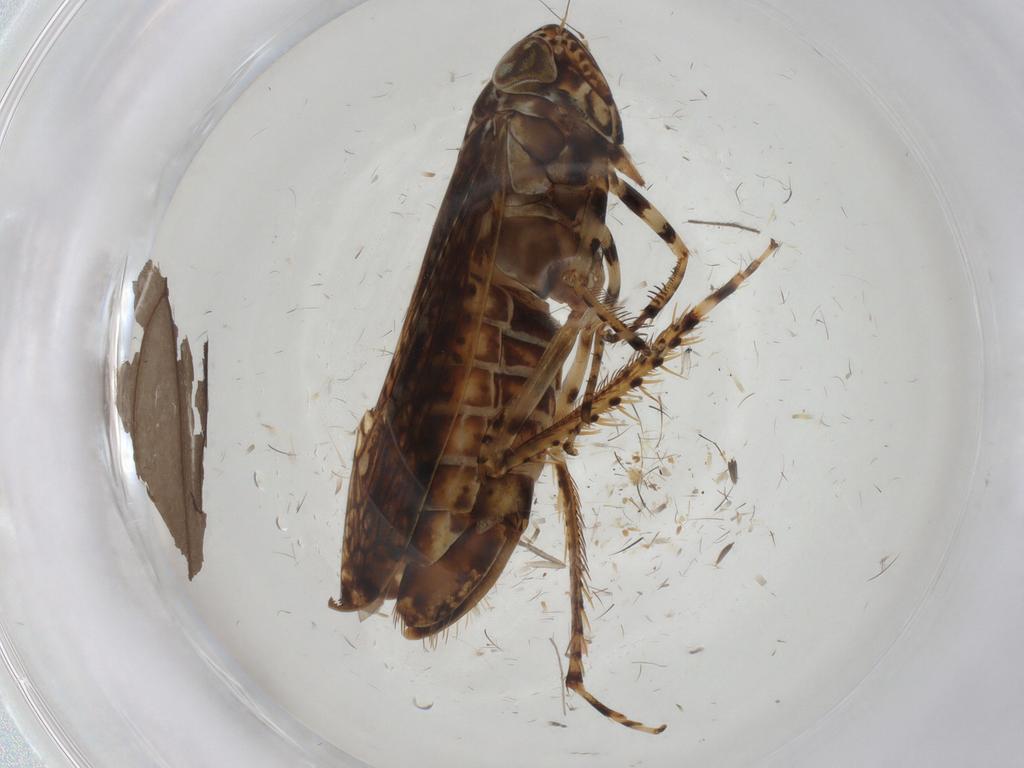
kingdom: Animalia
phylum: Arthropoda
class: Insecta
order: Hemiptera
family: Cicadellidae
